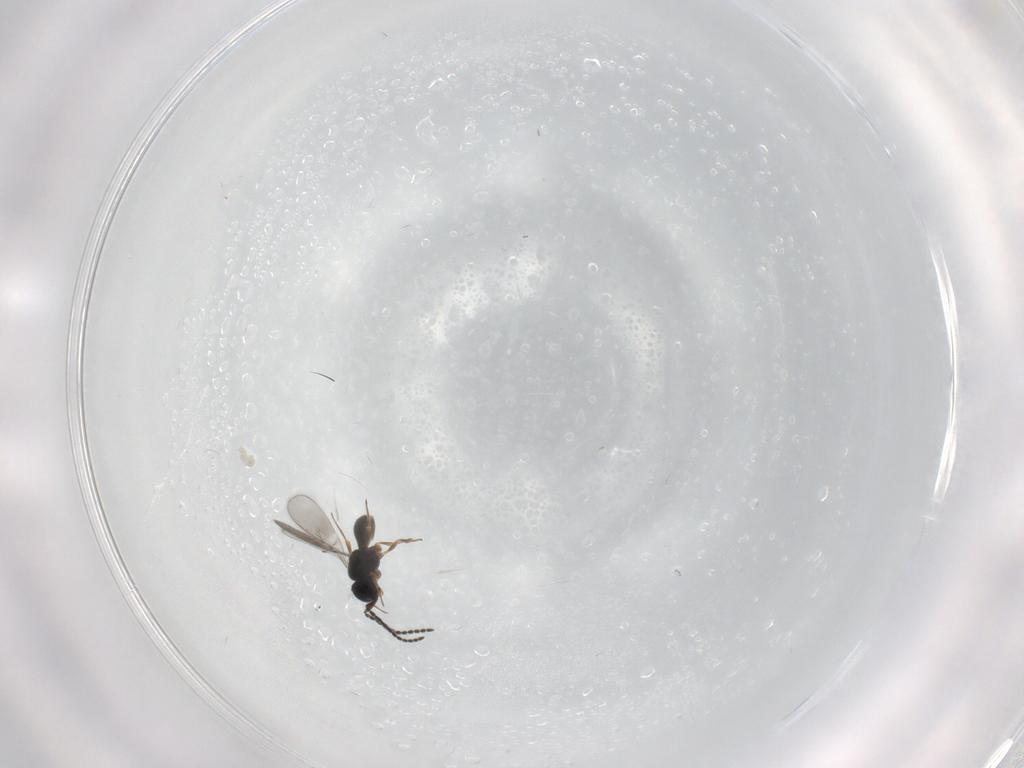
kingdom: Animalia
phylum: Arthropoda
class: Insecta
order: Hymenoptera
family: Scelionidae
